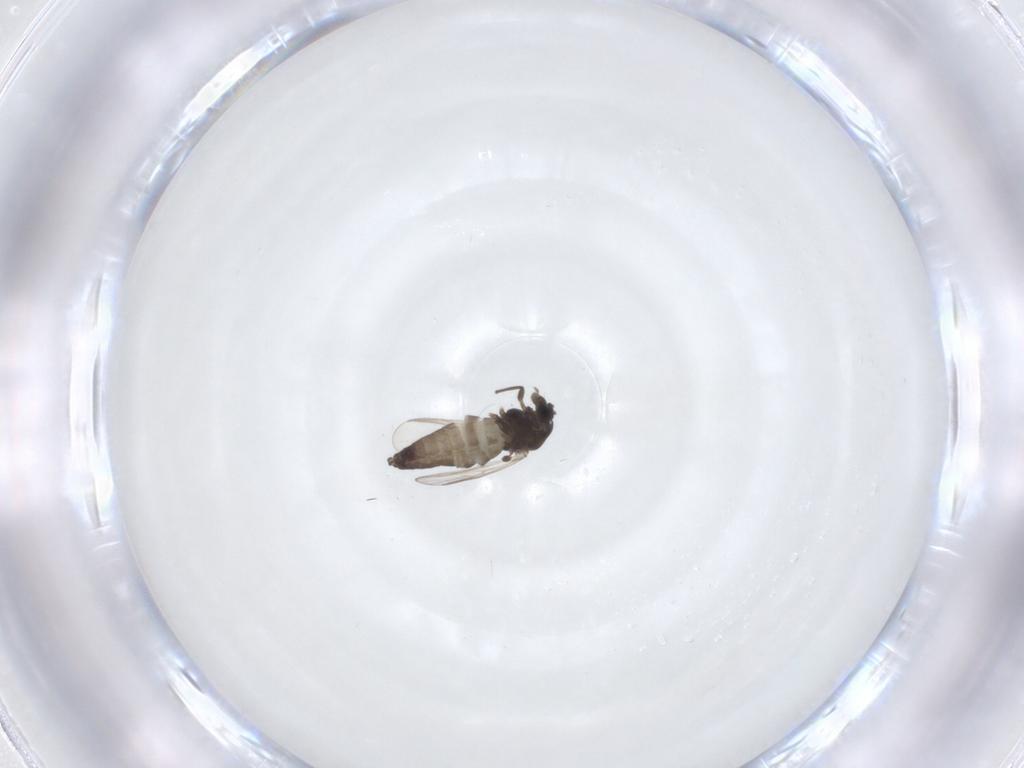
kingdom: Animalia
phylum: Arthropoda
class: Insecta
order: Diptera
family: Chironomidae
